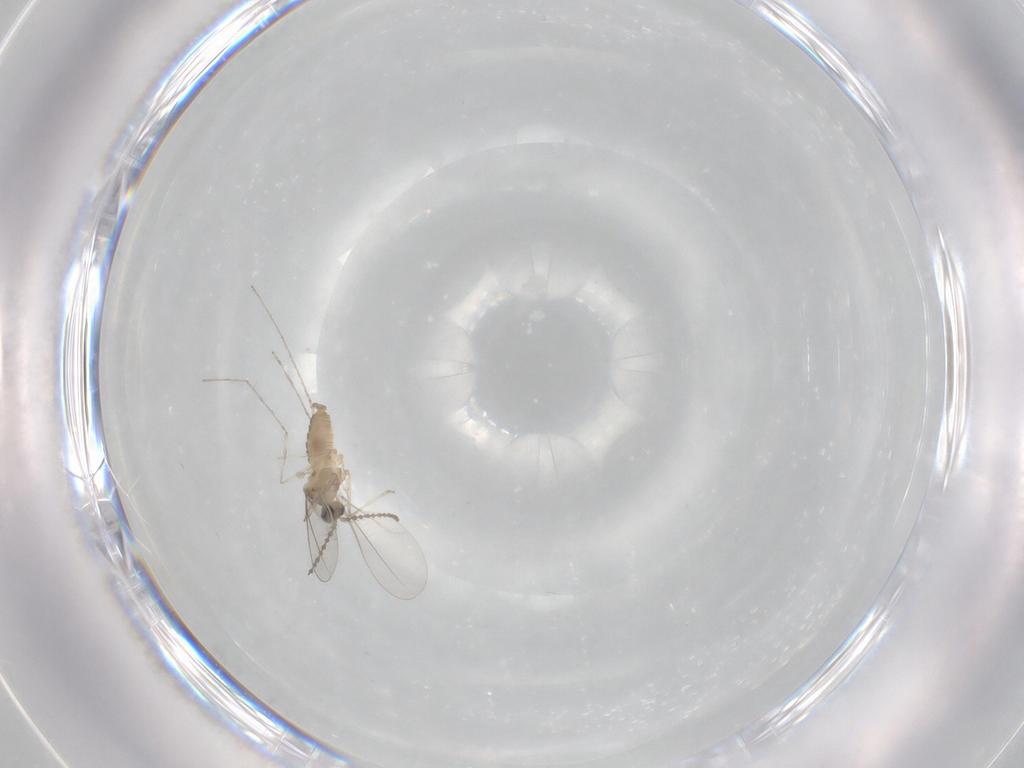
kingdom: Animalia
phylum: Arthropoda
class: Insecta
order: Diptera
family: Cecidomyiidae
